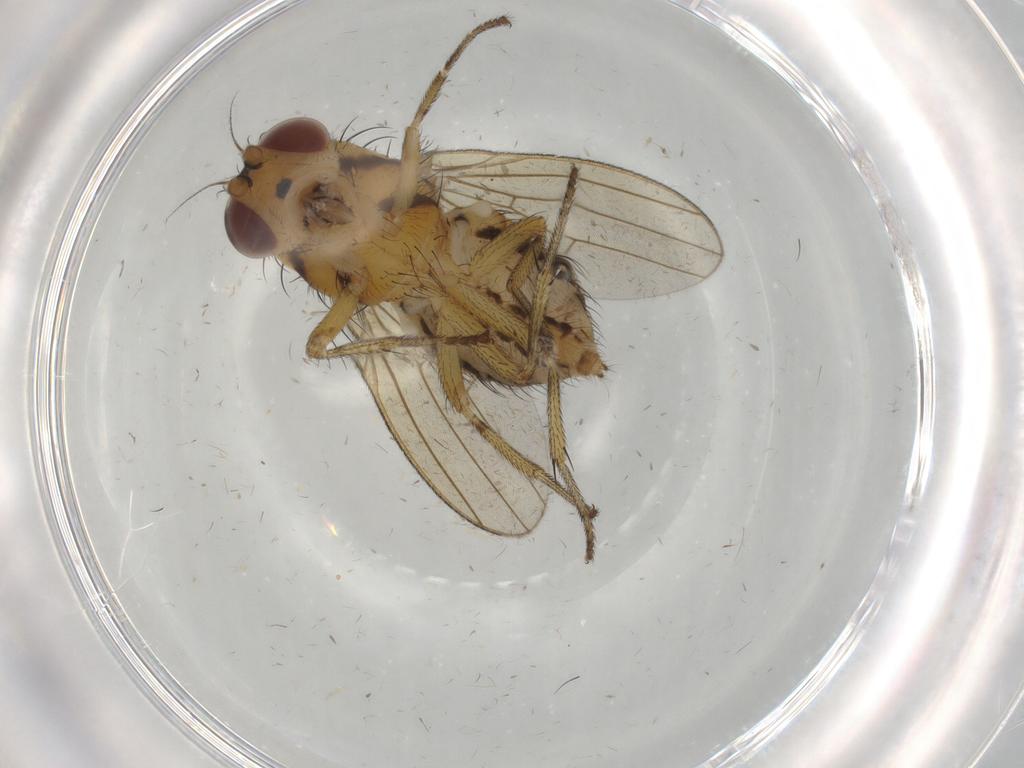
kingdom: Animalia
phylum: Arthropoda
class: Insecta
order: Diptera
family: Psychodidae
